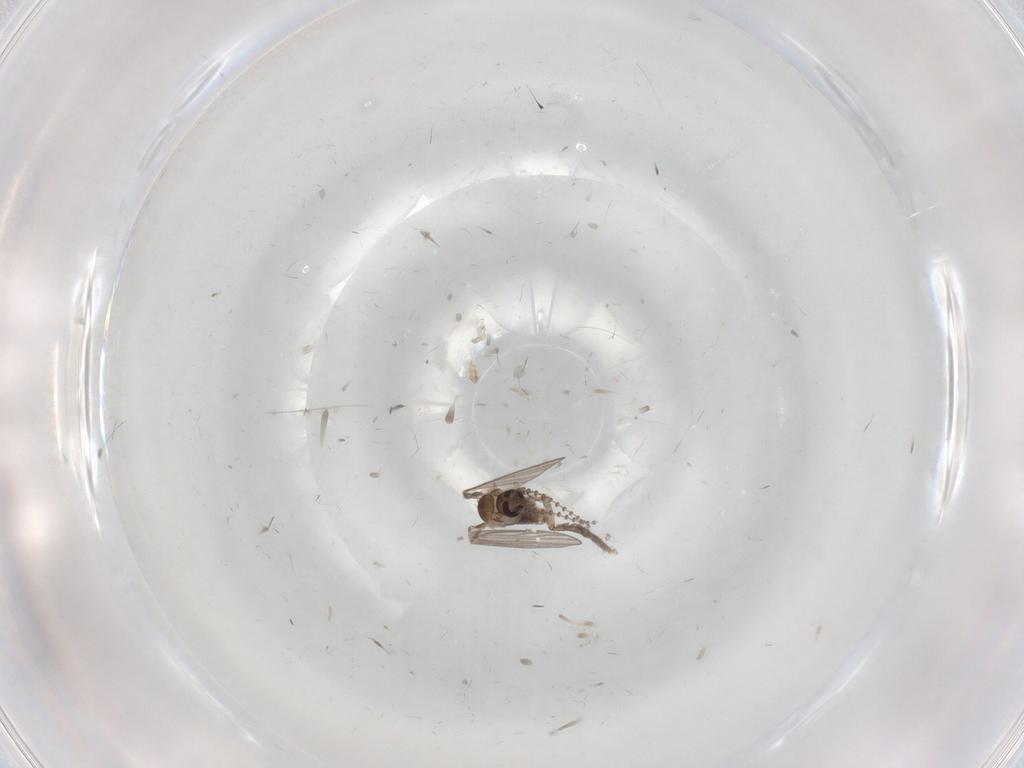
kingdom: Animalia
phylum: Arthropoda
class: Insecta
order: Diptera
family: Psychodidae
